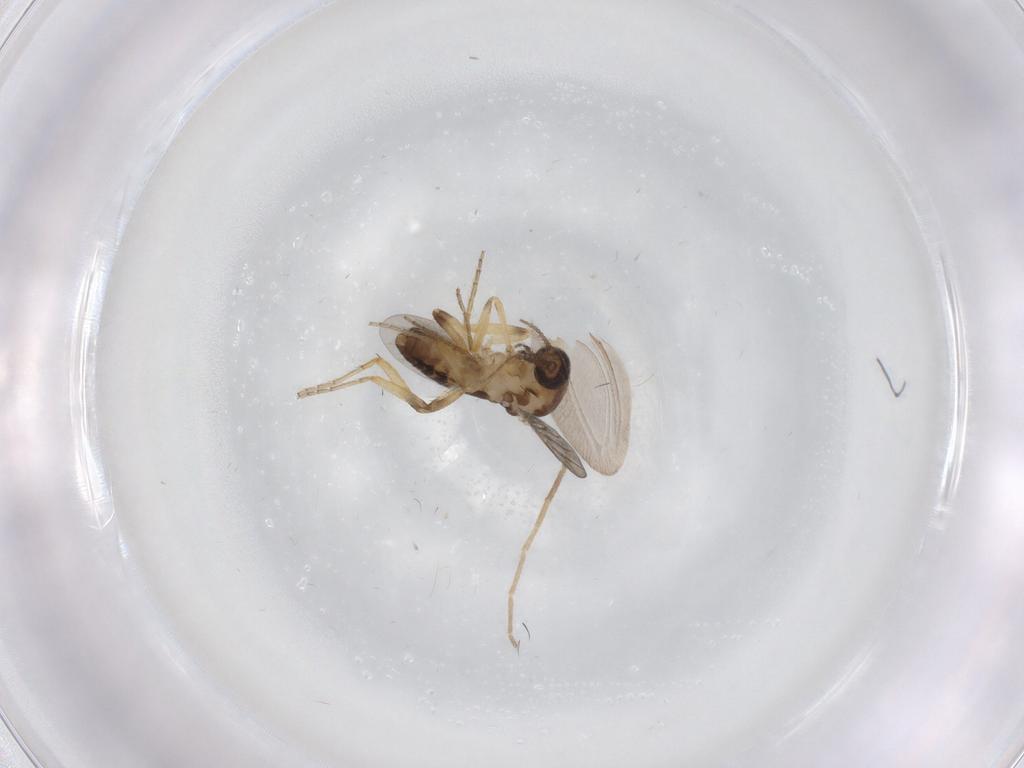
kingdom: Animalia
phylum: Arthropoda
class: Insecta
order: Diptera
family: Ceratopogonidae
